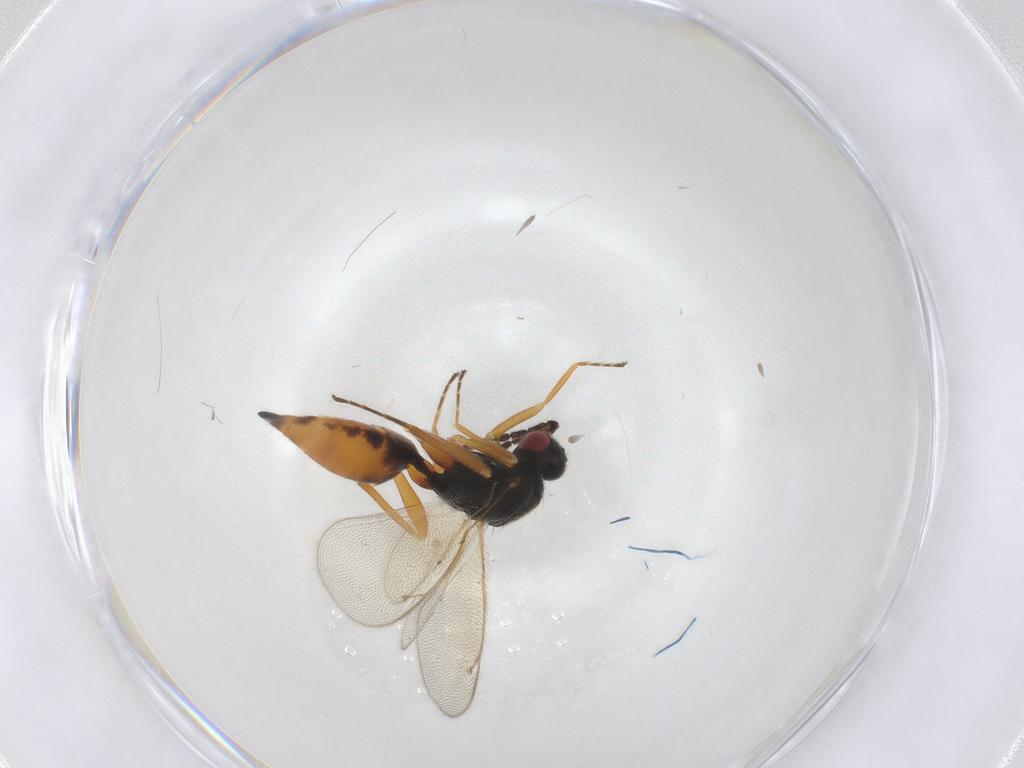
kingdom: Animalia
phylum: Arthropoda
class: Insecta
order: Hymenoptera
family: Eulophidae
